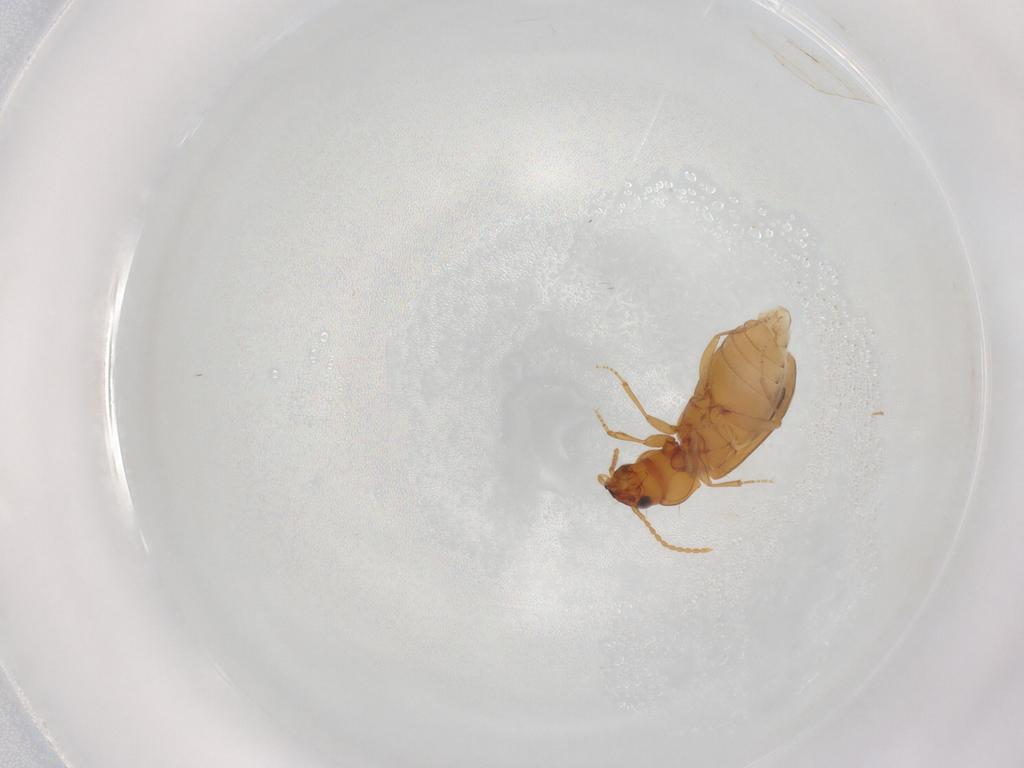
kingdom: Animalia
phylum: Arthropoda
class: Insecta
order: Coleoptera
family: Carabidae
